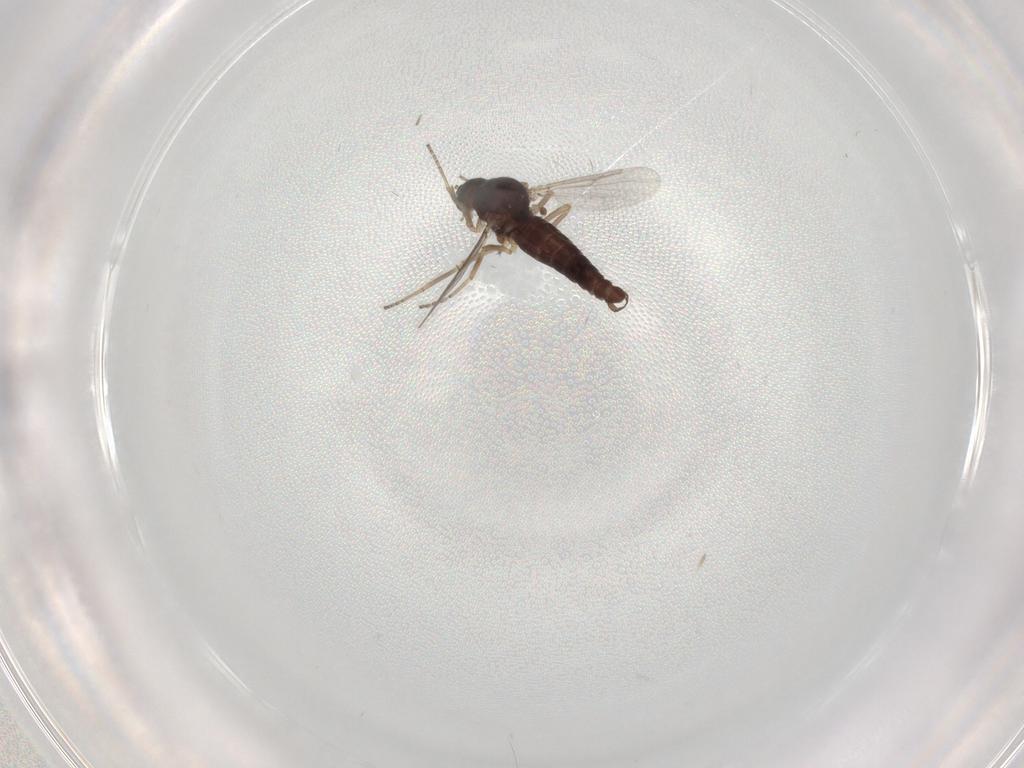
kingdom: Animalia
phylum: Arthropoda
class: Insecta
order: Diptera
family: Ceratopogonidae
